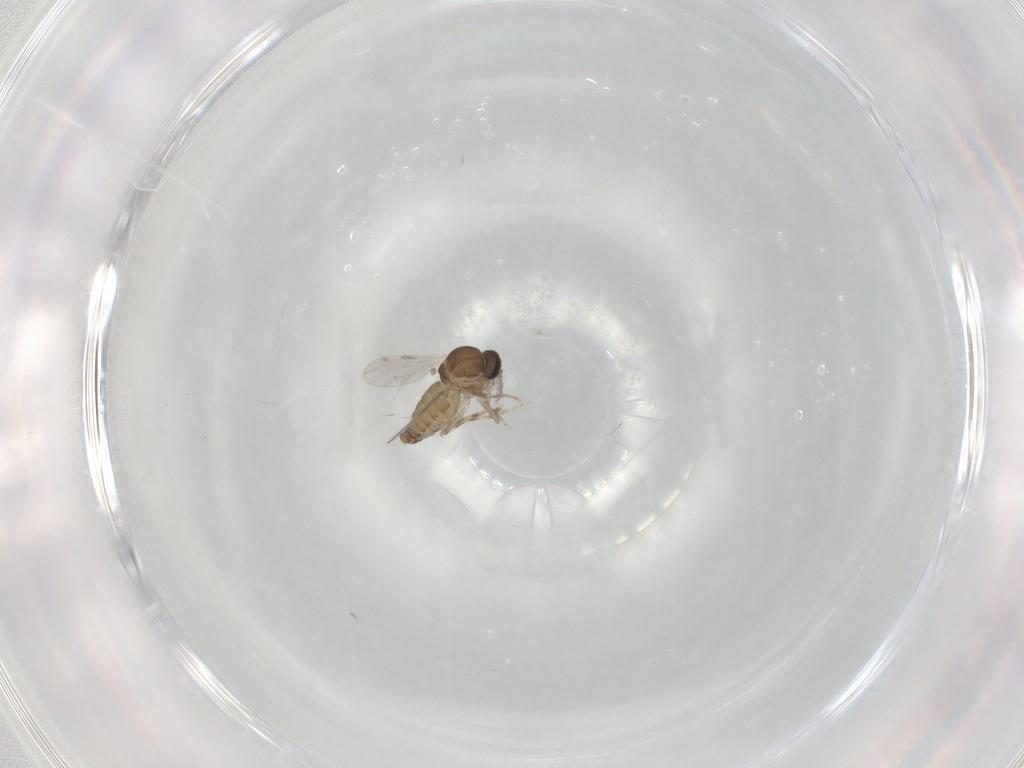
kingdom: Animalia
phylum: Arthropoda
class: Insecta
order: Diptera
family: Ceratopogonidae
